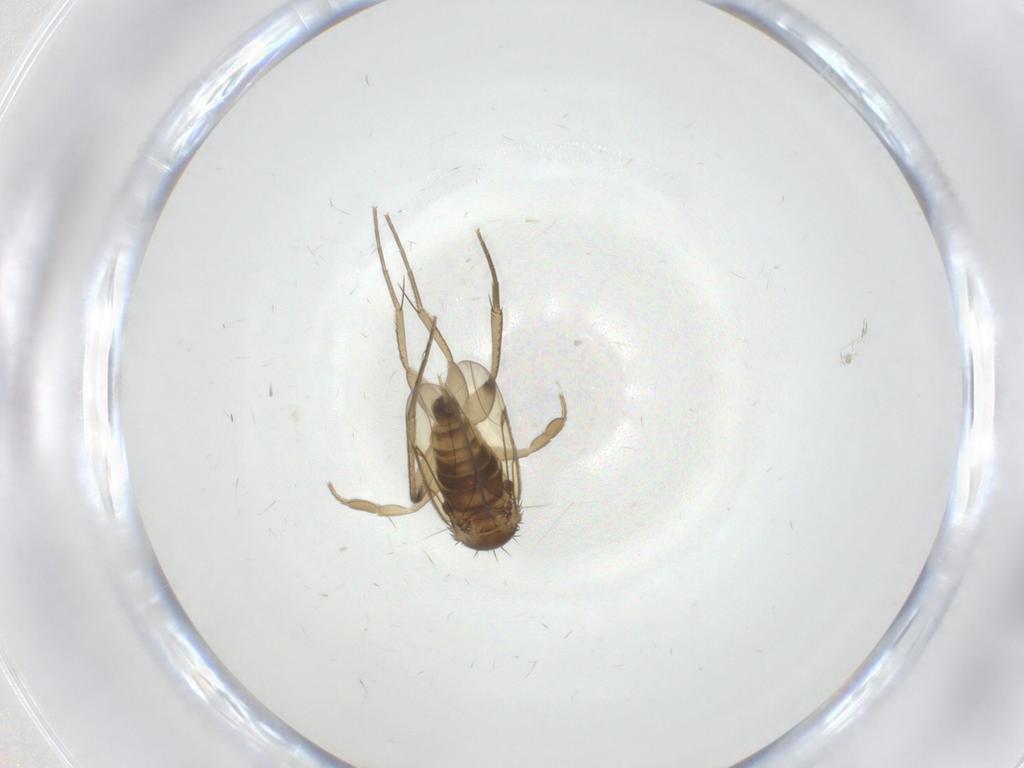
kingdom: Animalia
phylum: Arthropoda
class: Insecta
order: Diptera
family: Phoridae
